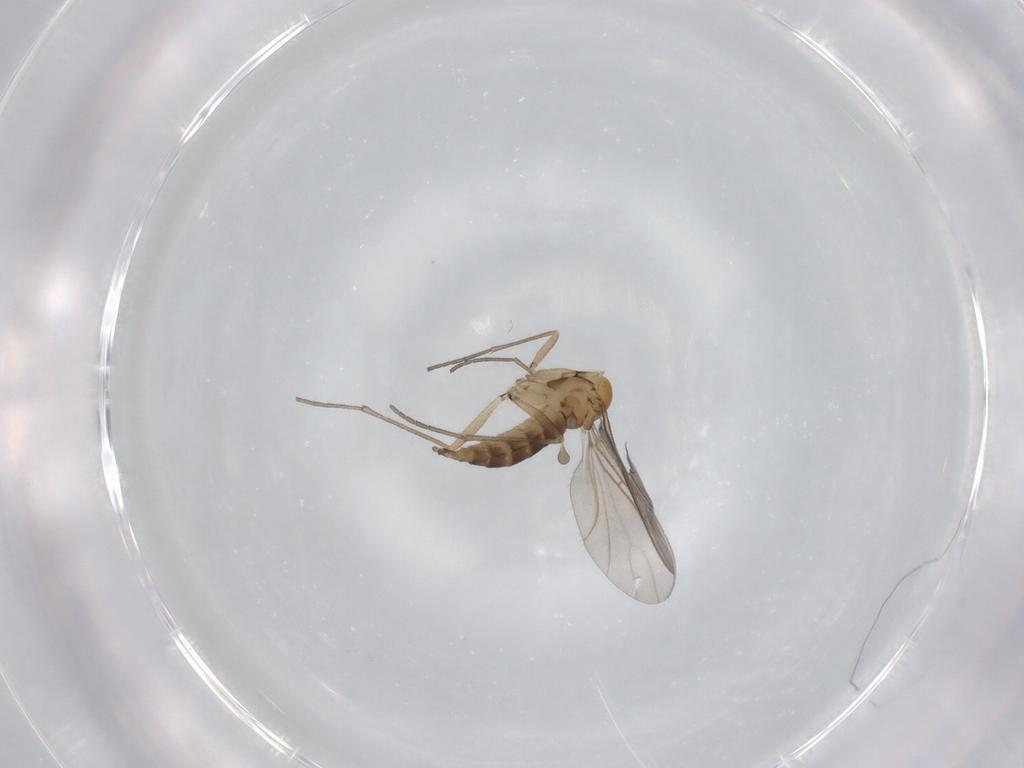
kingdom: Animalia
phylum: Arthropoda
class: Insecta
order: Diptera
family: Sciaridae
